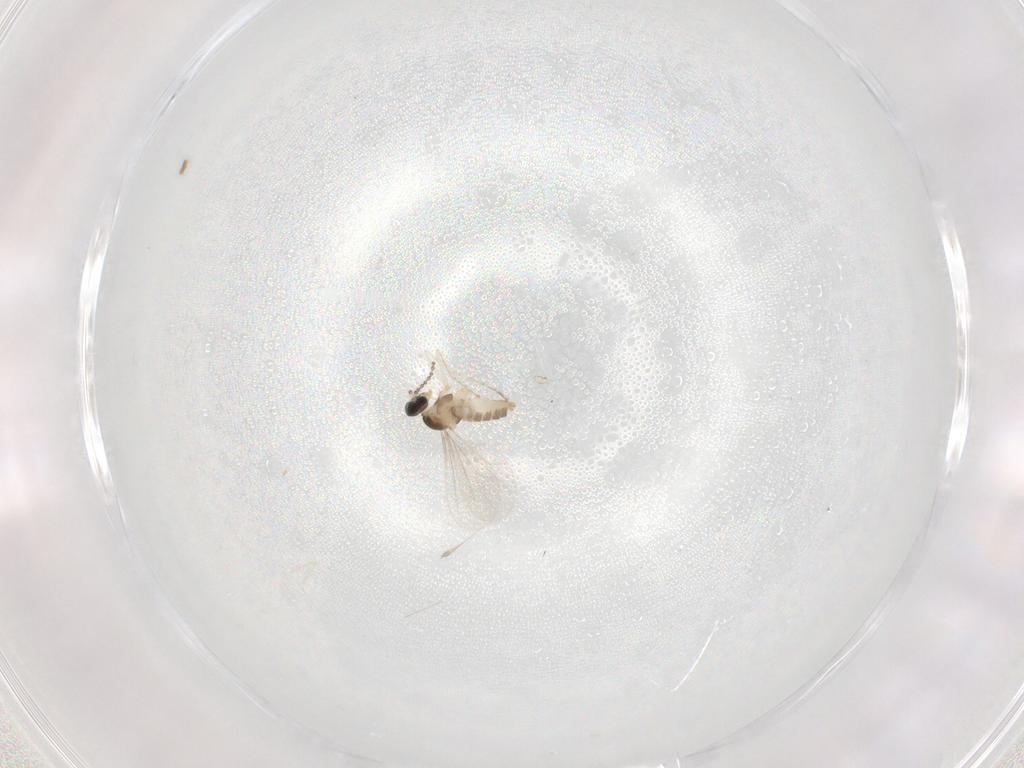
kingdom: Animalia
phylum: Arthropoda
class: Insecta
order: Diptera
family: Cecidomyiidae
